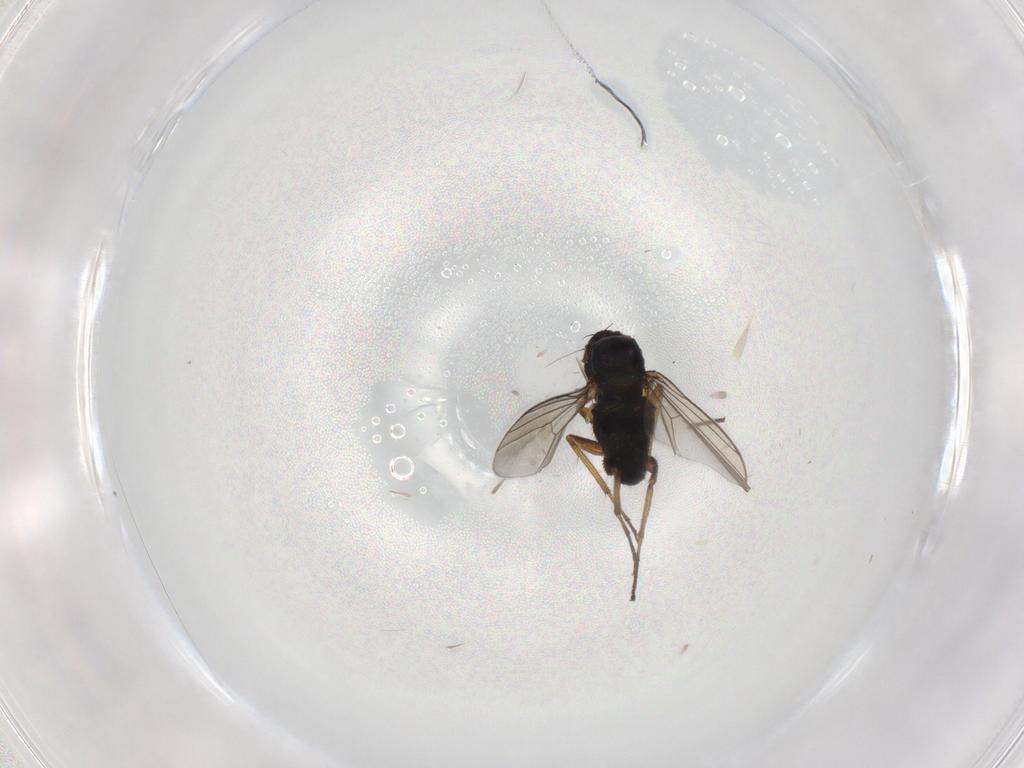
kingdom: Animalia
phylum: Arthropoda
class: Insecta
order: Diptera
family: Dolichopodidae
